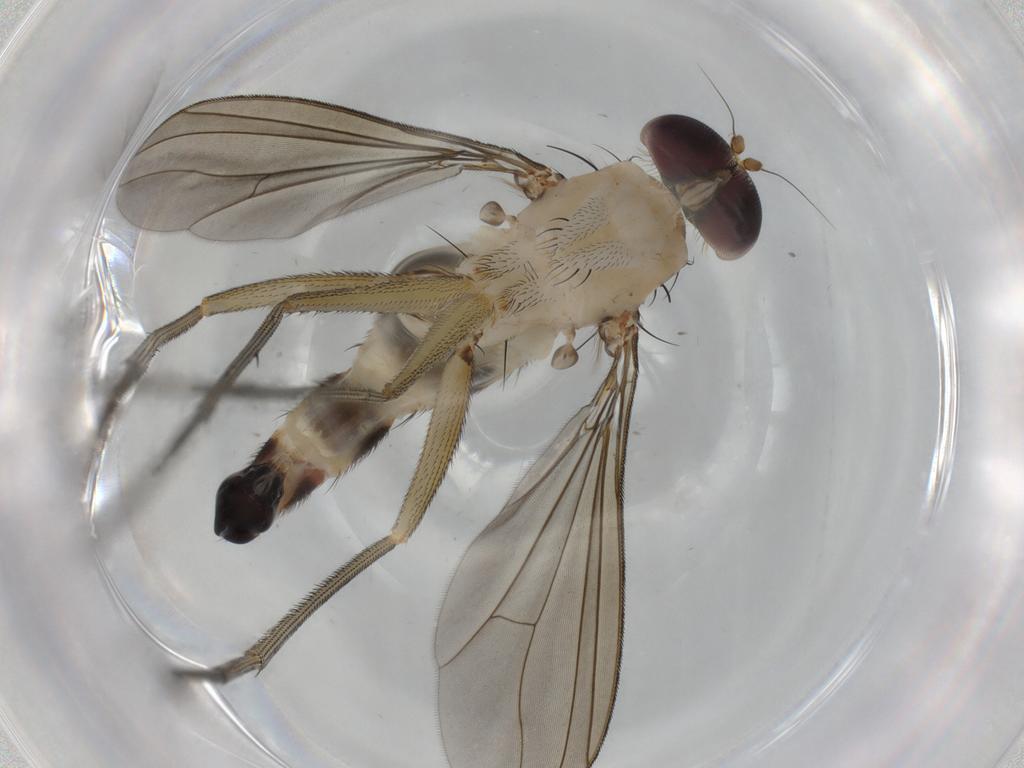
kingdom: Animalia
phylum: Arthropoda
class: Insecta
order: Diptera
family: Dolichopodidae
